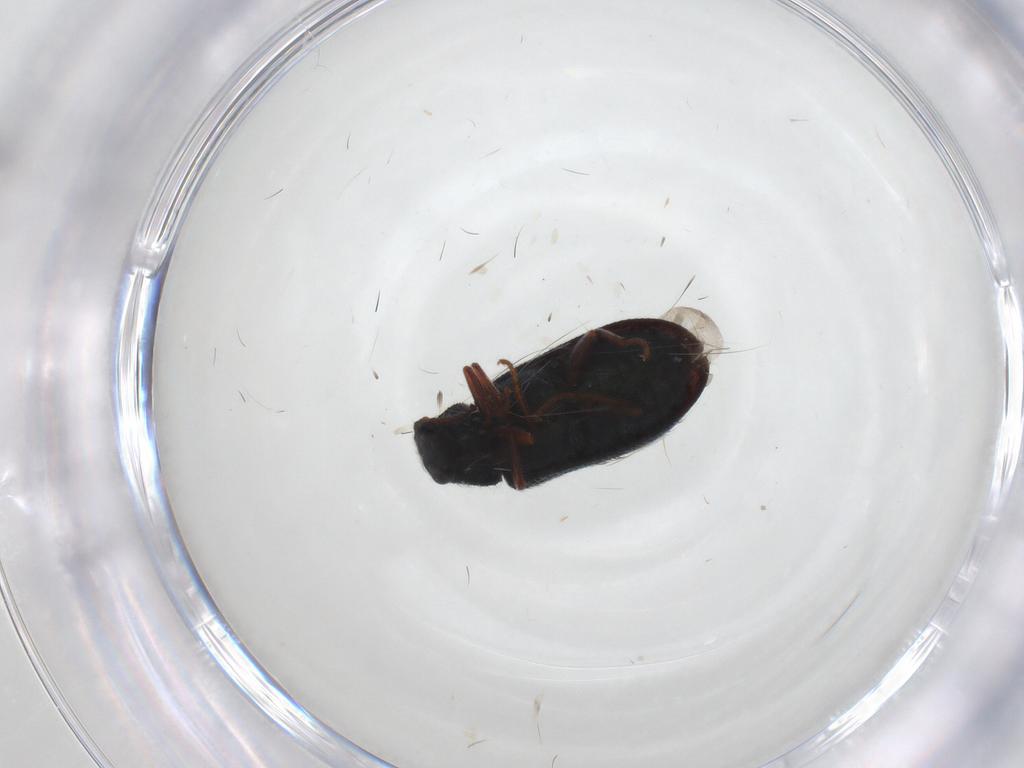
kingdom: Animalia
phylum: Arthropoda
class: Insecta
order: Coleoptera
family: Melyridae
